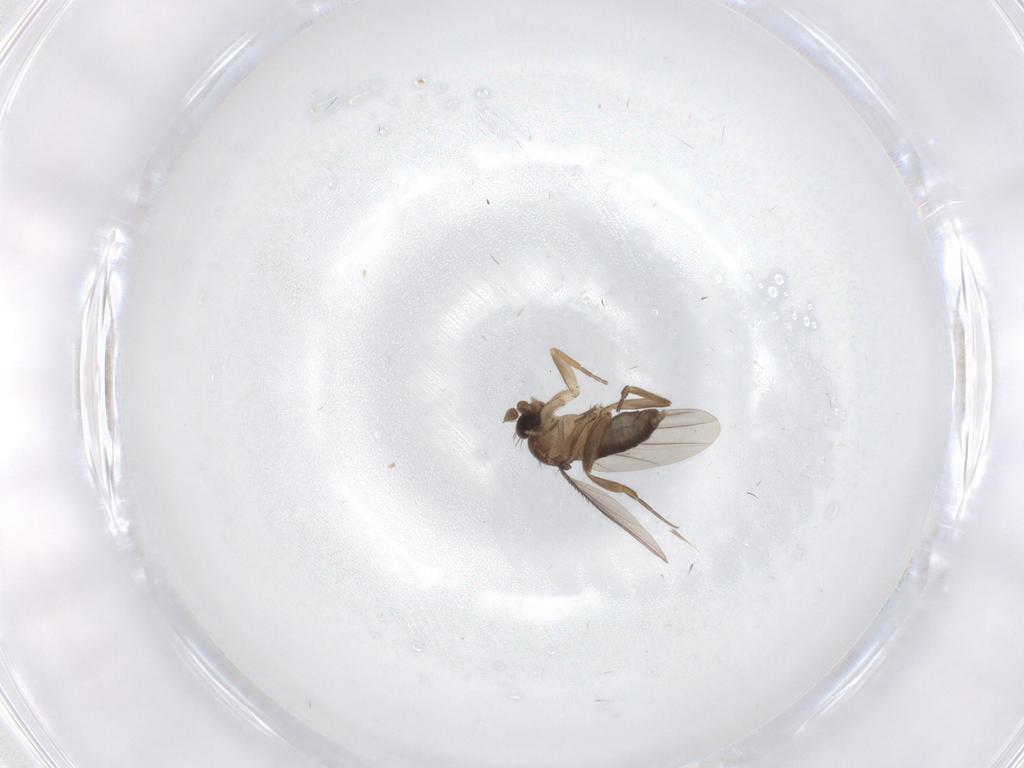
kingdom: Animalia
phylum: Arthropoda
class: Insecta
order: Diptera
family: Phoridae
